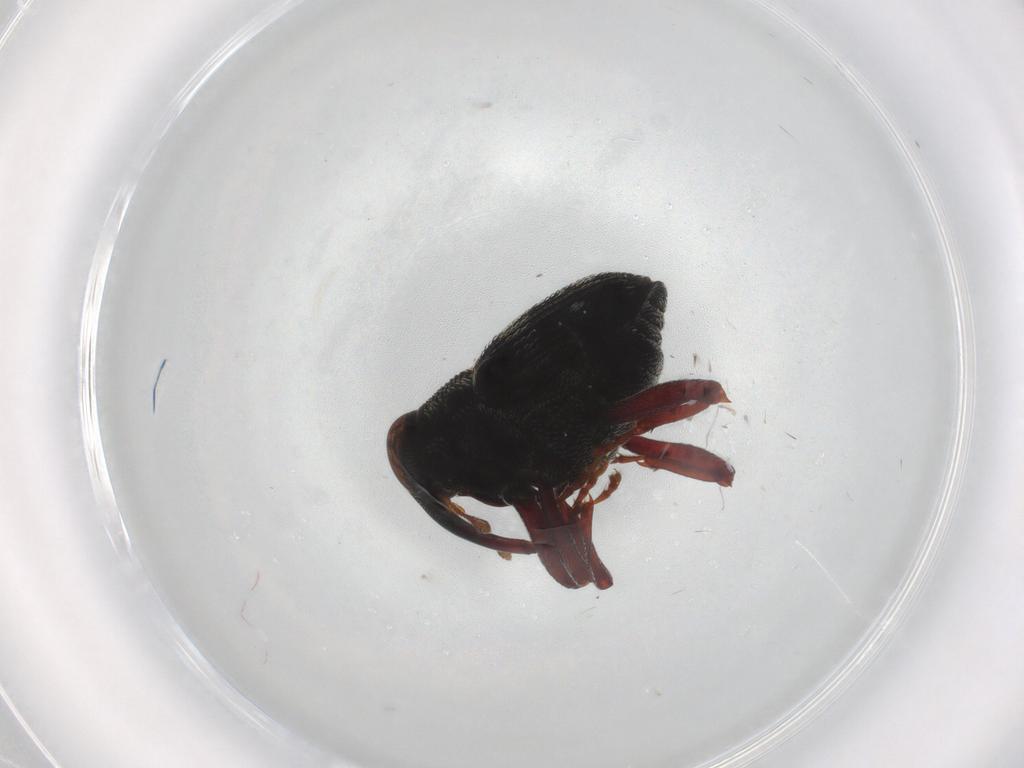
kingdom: Animalia
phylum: Arthropoda
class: Insecta
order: Coleoptera
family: Curculionidae
